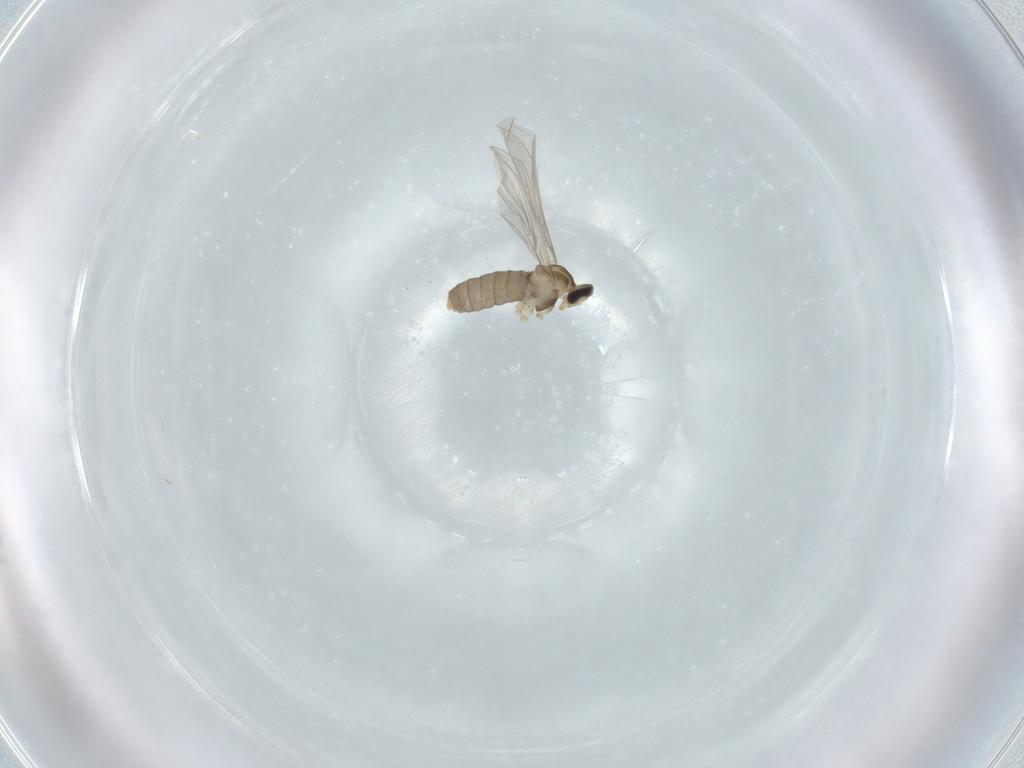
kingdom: Animalia
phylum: Arthropoda
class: Insecta
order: Diptera
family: Cecidomyiidae
